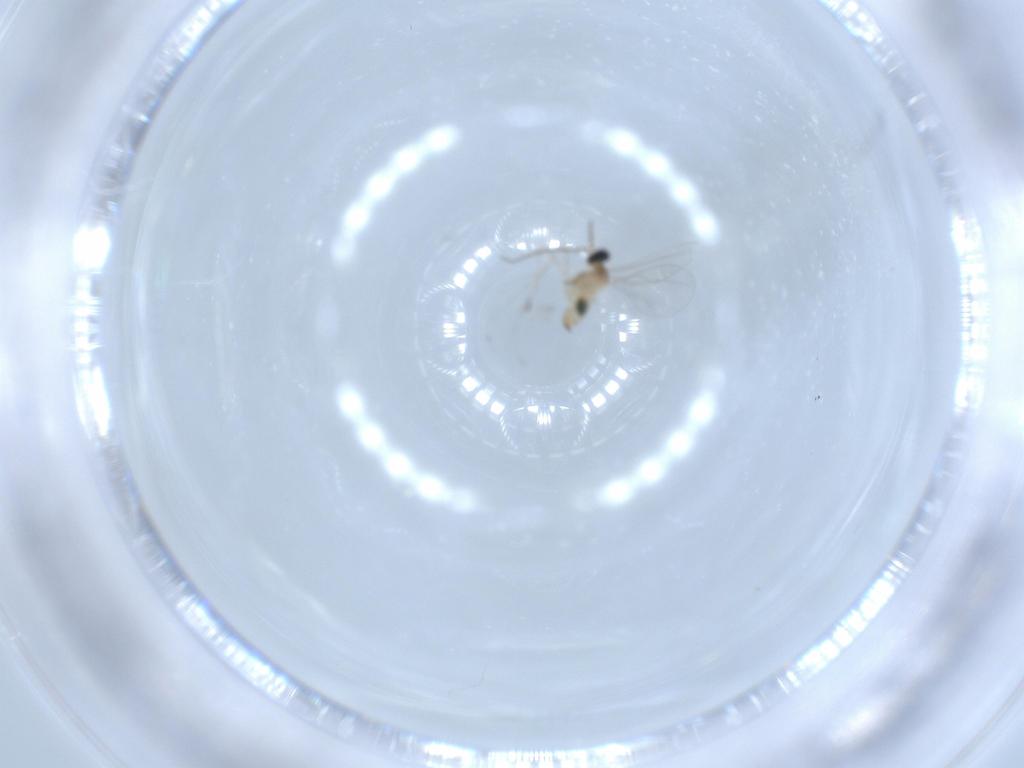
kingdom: Animalia
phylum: Arthropoda
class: Insecta
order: Diptera
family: Cecidomyiidae
